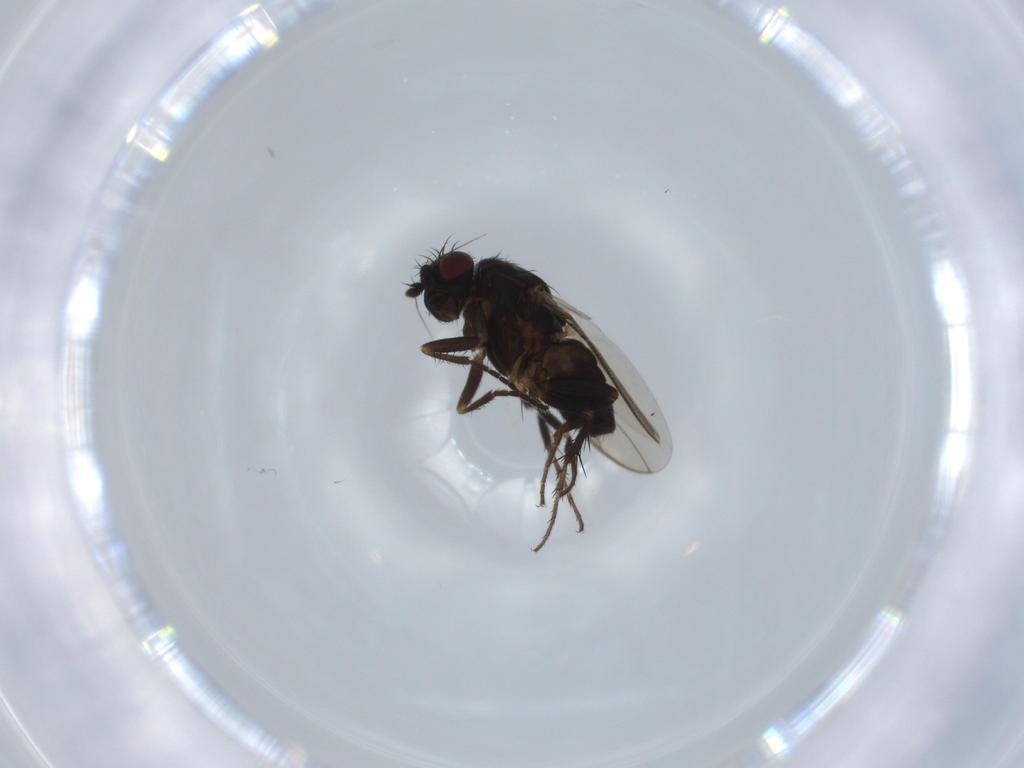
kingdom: Animalia
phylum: Arthropoda
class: Insecta
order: Diptera
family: Sphaeroceridae
